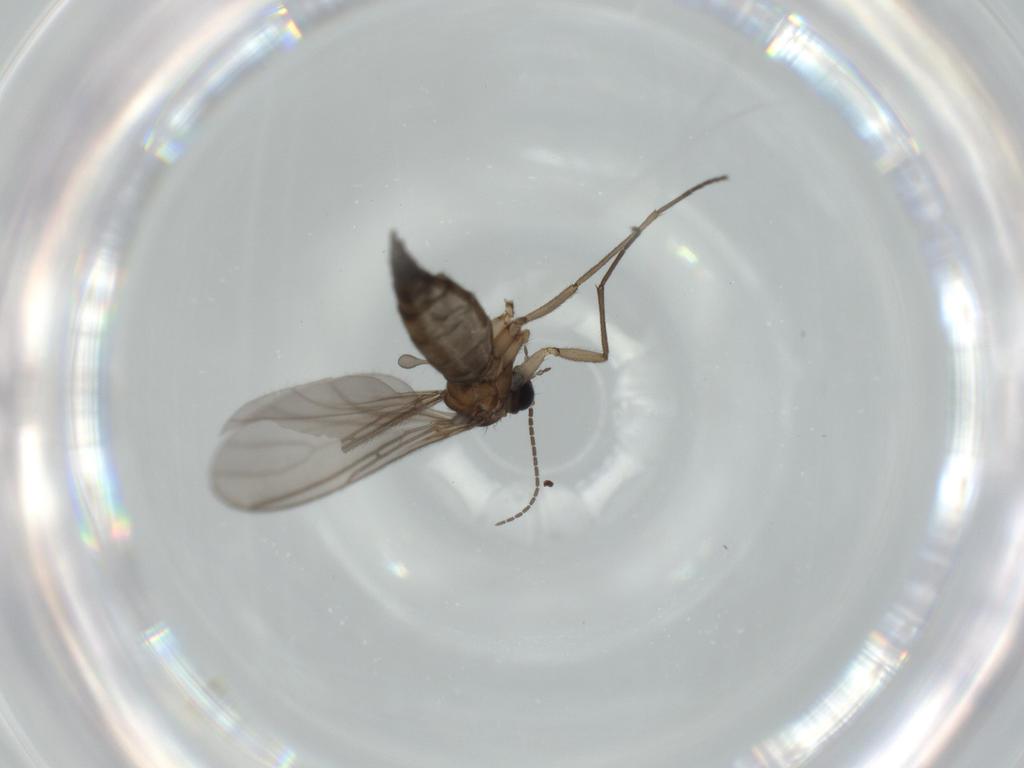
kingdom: Animalia
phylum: Arthropoda
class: Insecta
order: Diptera
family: Sciaridae
